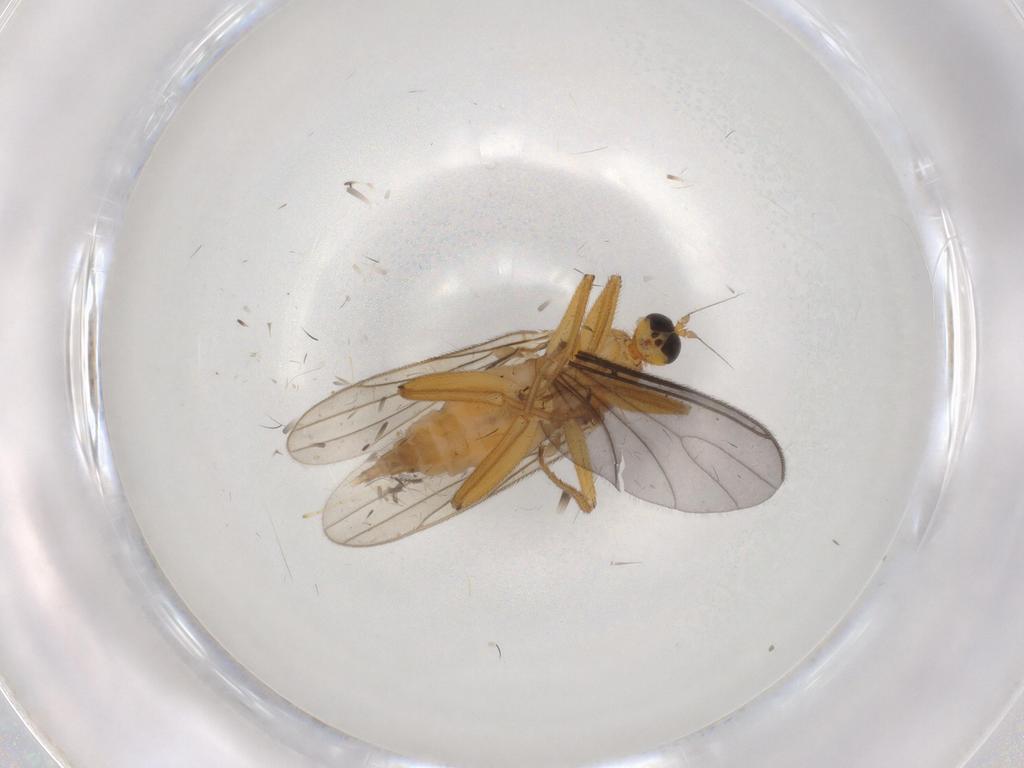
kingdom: Animalia
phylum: Arthropoda
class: Insecta
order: Diptera
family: Hybotidae
